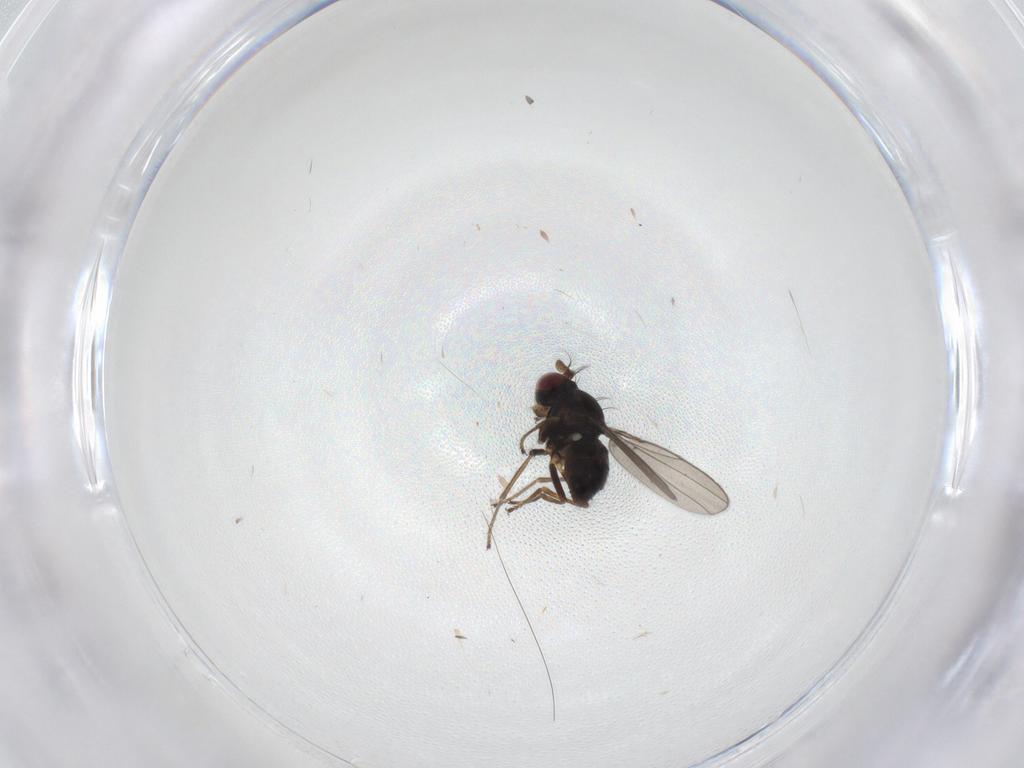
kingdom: Animalia
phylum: Arthropoda
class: Insecta
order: Diptera
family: Ephydridae
